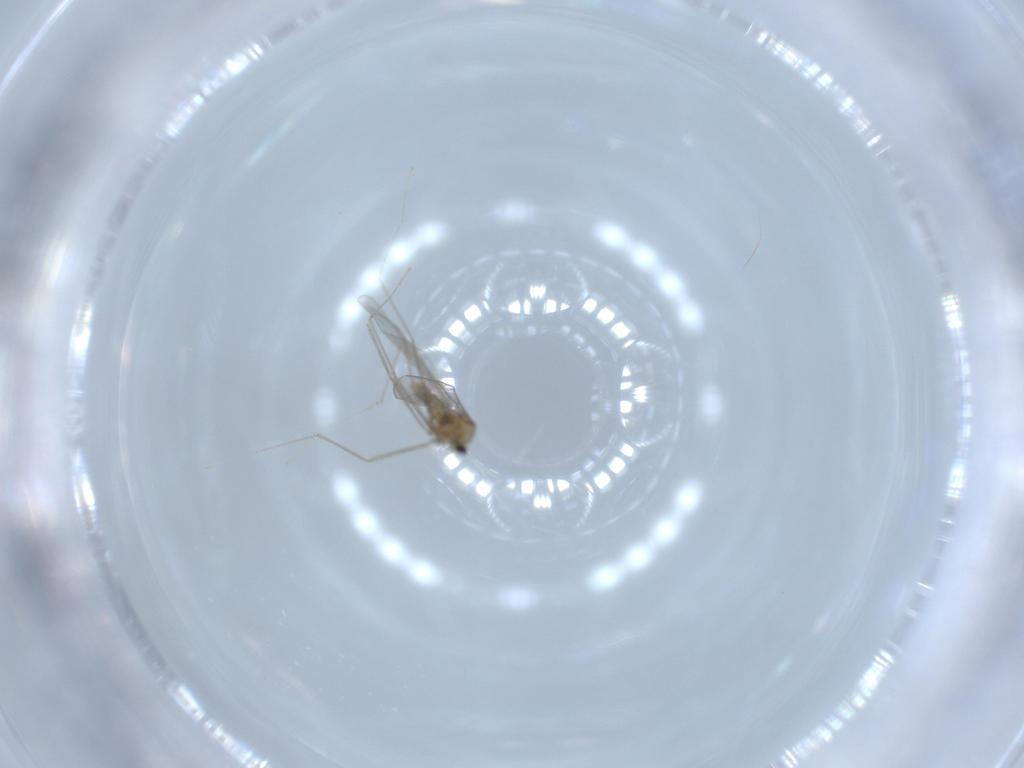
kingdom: Animalia
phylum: Arthropoda
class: Insecta
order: Diptera
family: Cecidomyiidae
